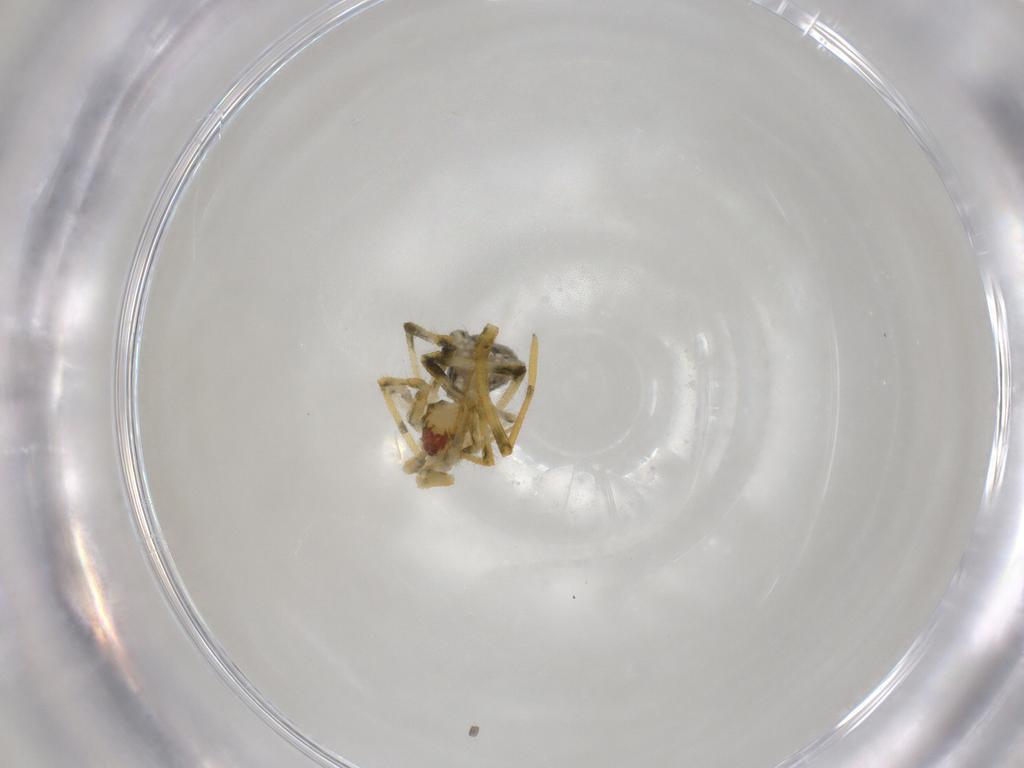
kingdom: Animalia
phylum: Arthropoda
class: Arachnida
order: Araneae
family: Theridiidae
